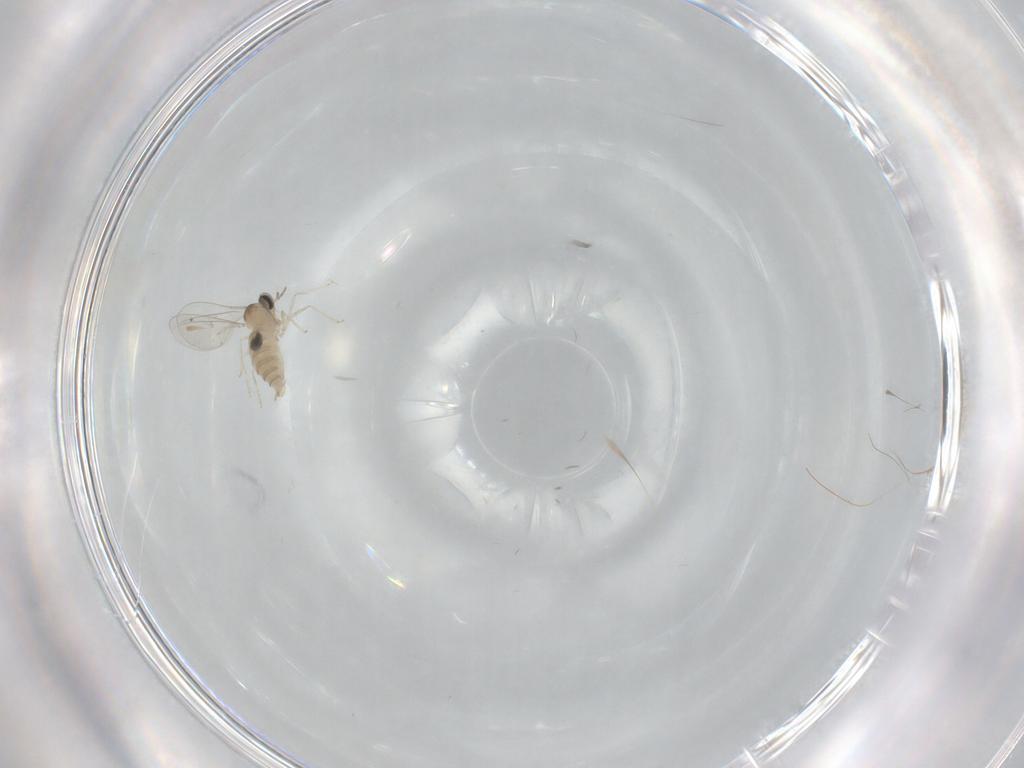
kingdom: Animalia
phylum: Arthropoda
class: Insecta
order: Diptera
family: Cecidomyiidae
